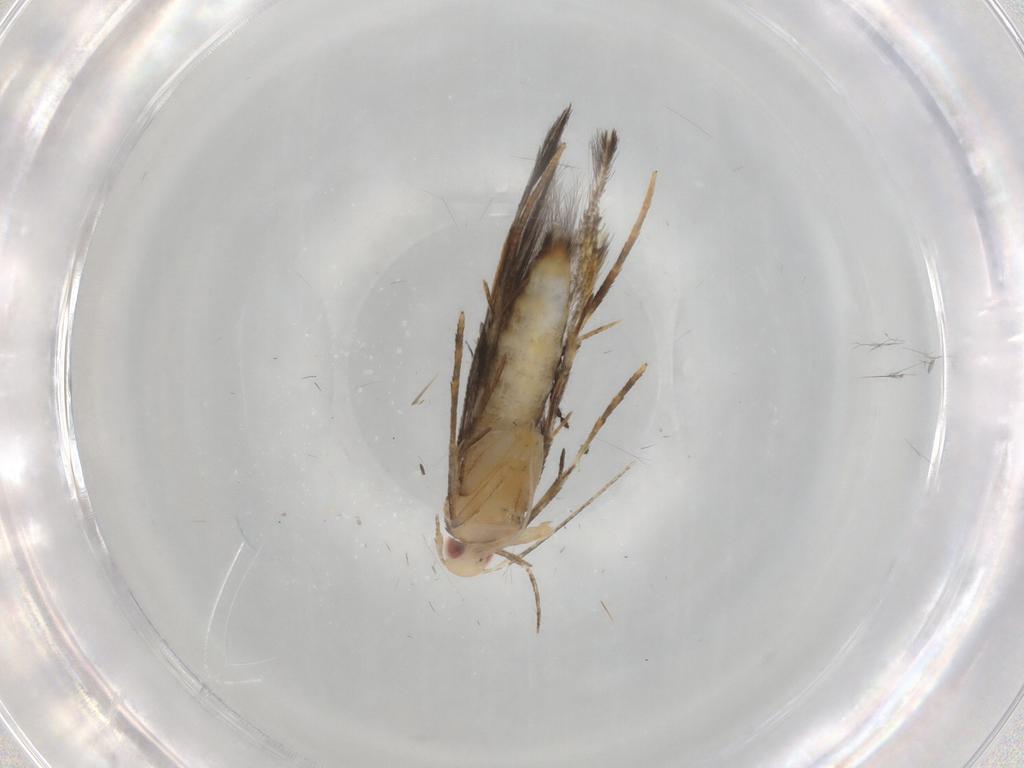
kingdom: Animalia
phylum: Arthropoda
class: Insecta
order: Lepidoptera
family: Cosmopterigidae
